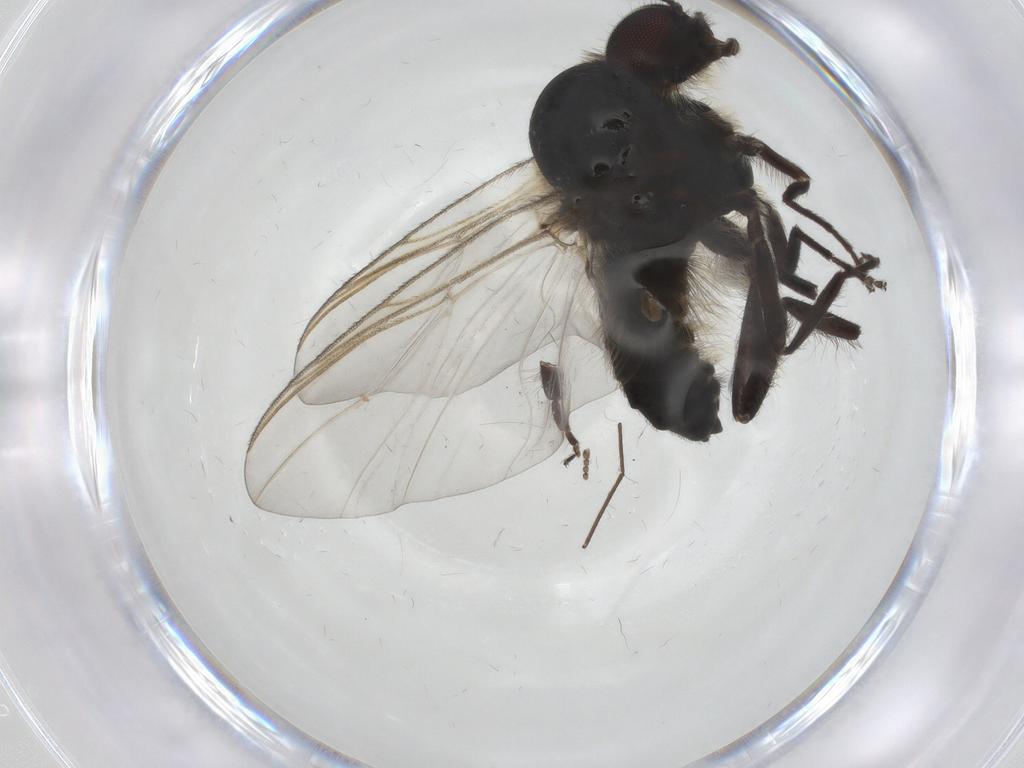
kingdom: Animalia
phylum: Arthropoda
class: Insecta
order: Diptera
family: Simuliidae
